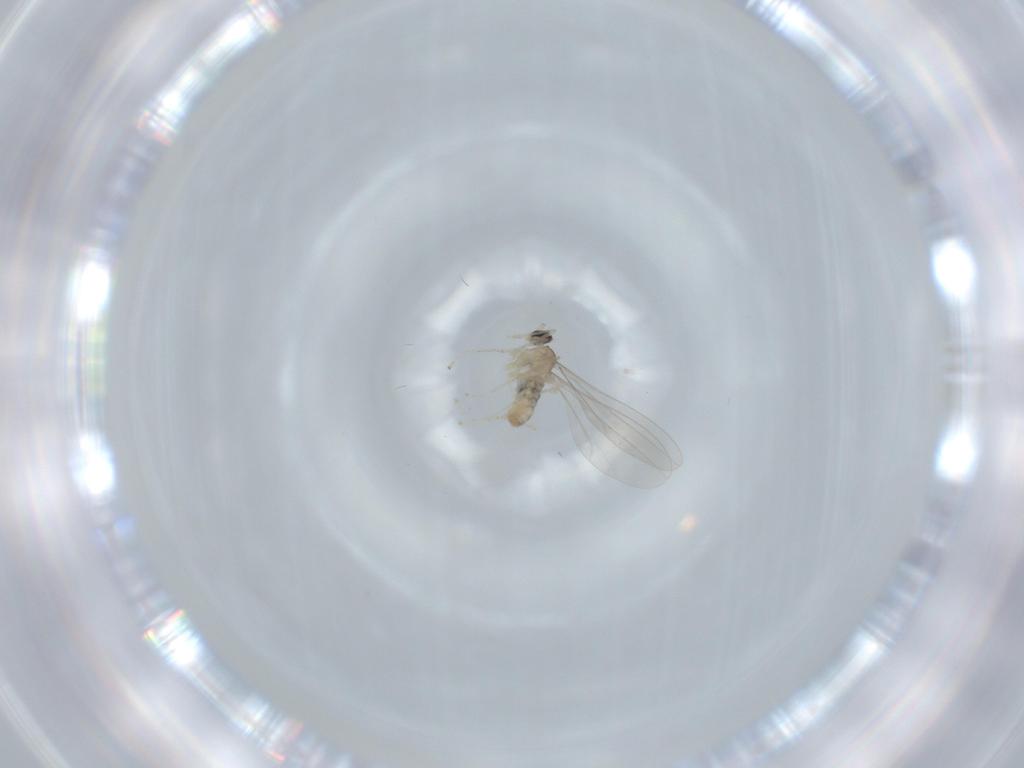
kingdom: Animalia
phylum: Arthropoda
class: Insecta
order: Diptera
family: Cecidomyiidae
